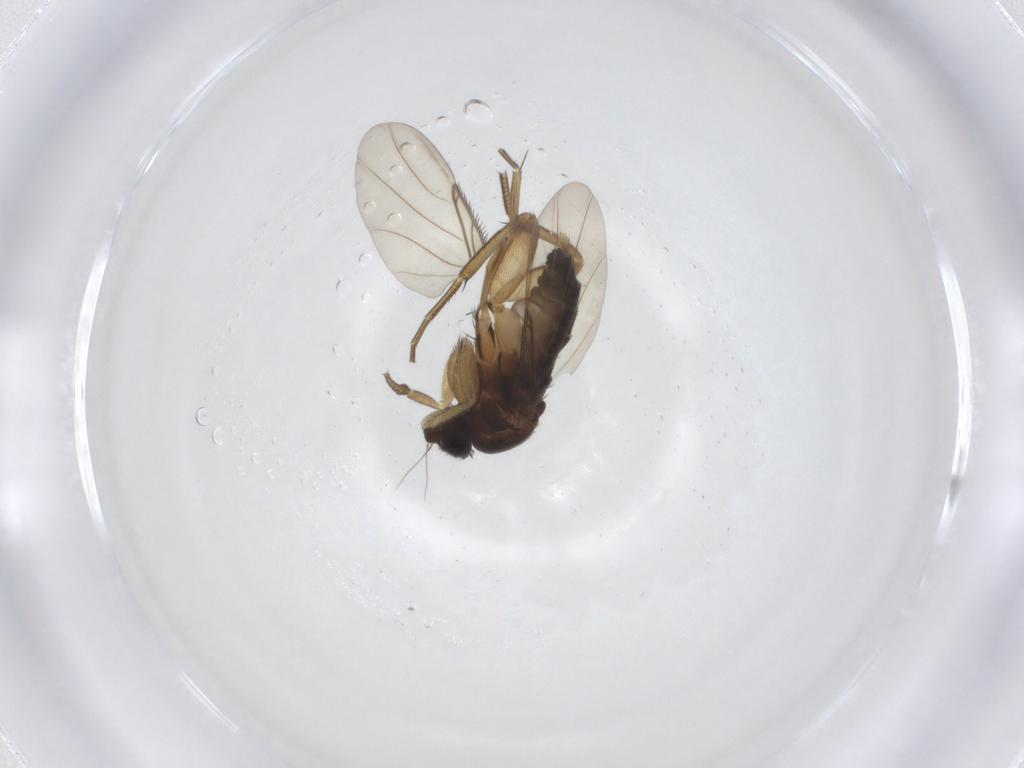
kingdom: Animalia
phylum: Arthropoda
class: Insecta
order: Diptera
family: Phoridae
